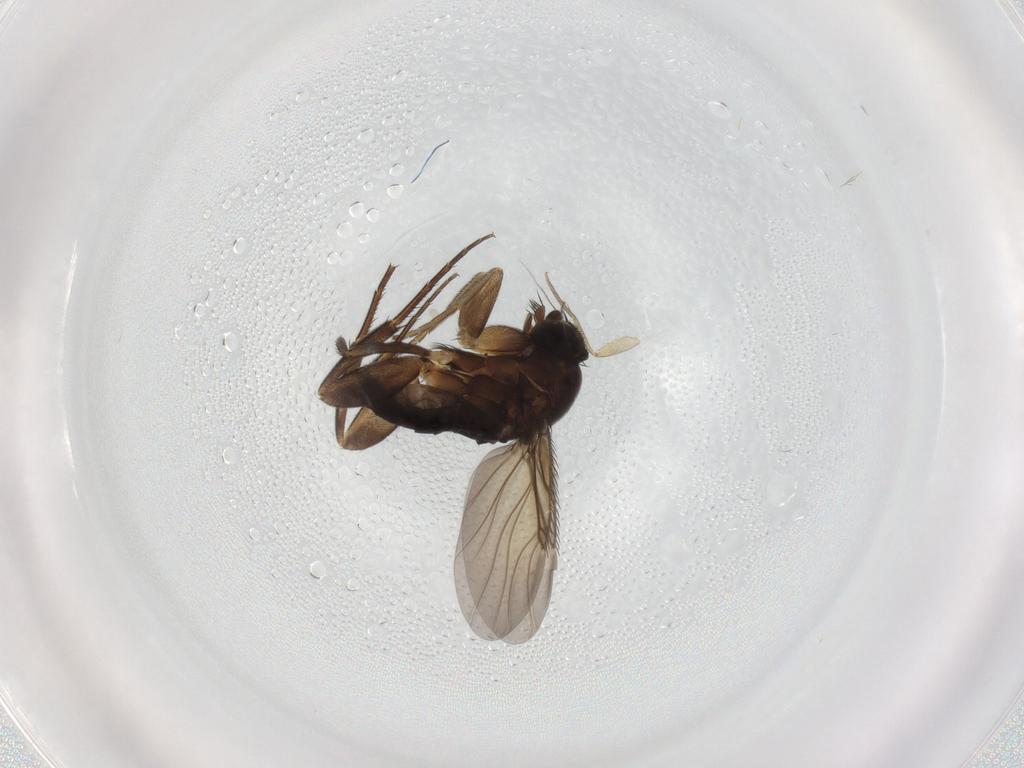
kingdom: Animalia
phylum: Arthropoda
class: Insecta
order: Diptera
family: Phoridae
